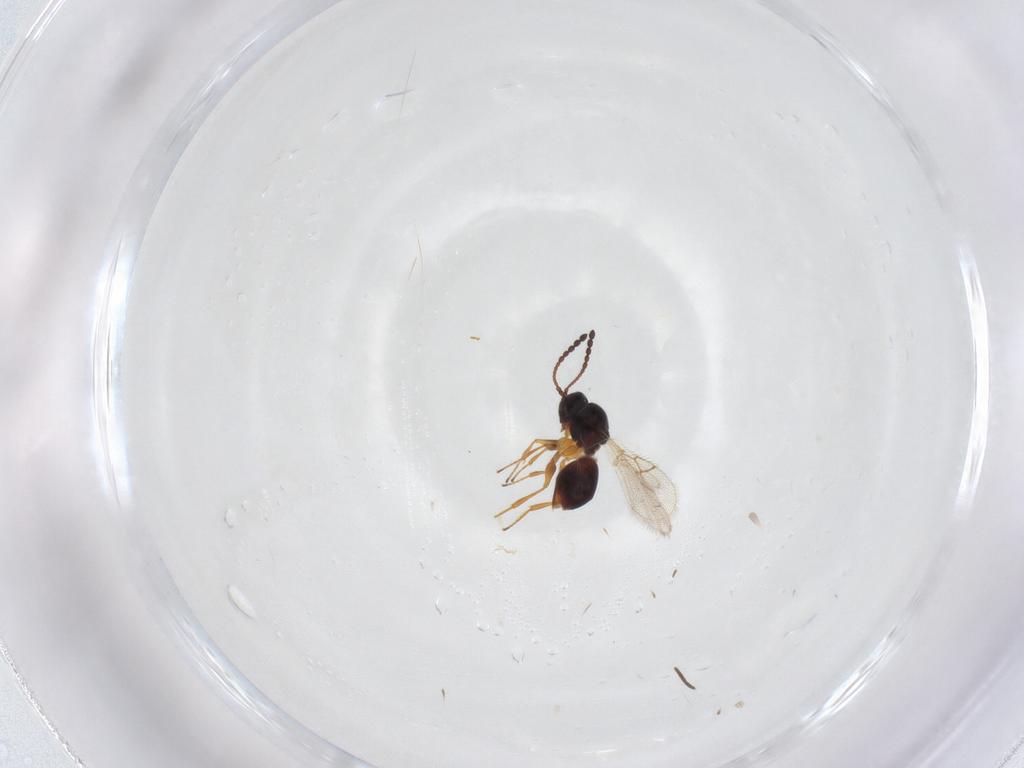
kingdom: Animalia
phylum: Arthropoda
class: Insecta
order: Hymenoptera
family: Figitidae
